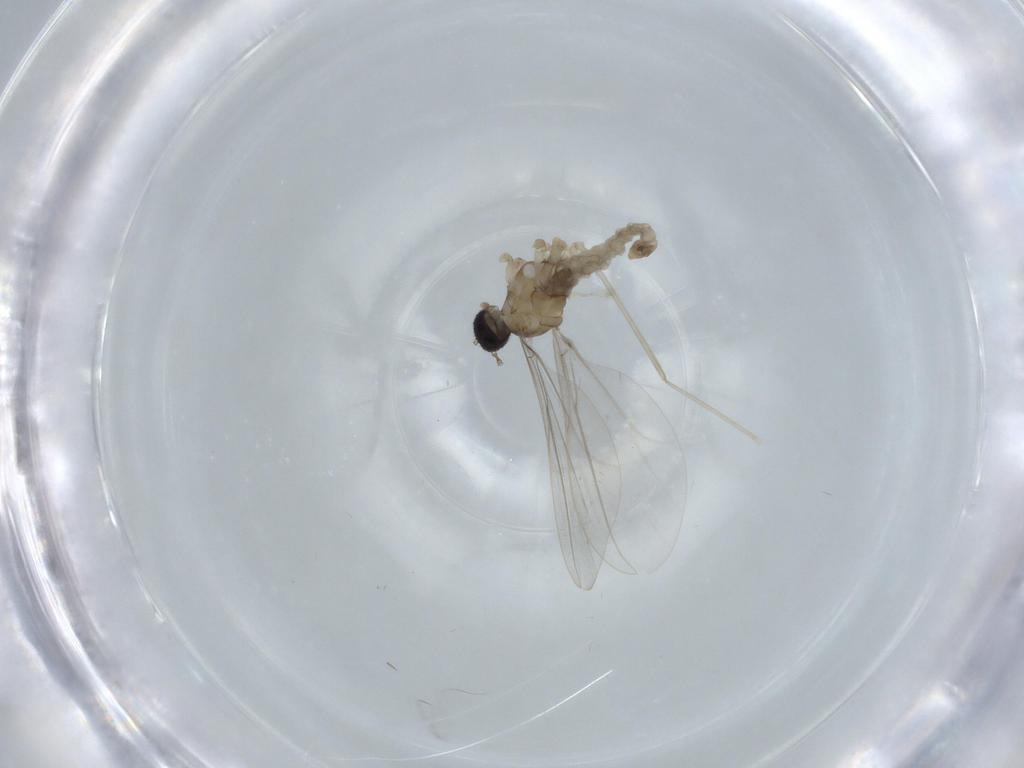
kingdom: Animalia
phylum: Arthropoda
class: Insecta
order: Diptera
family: Cecidomyiidae
